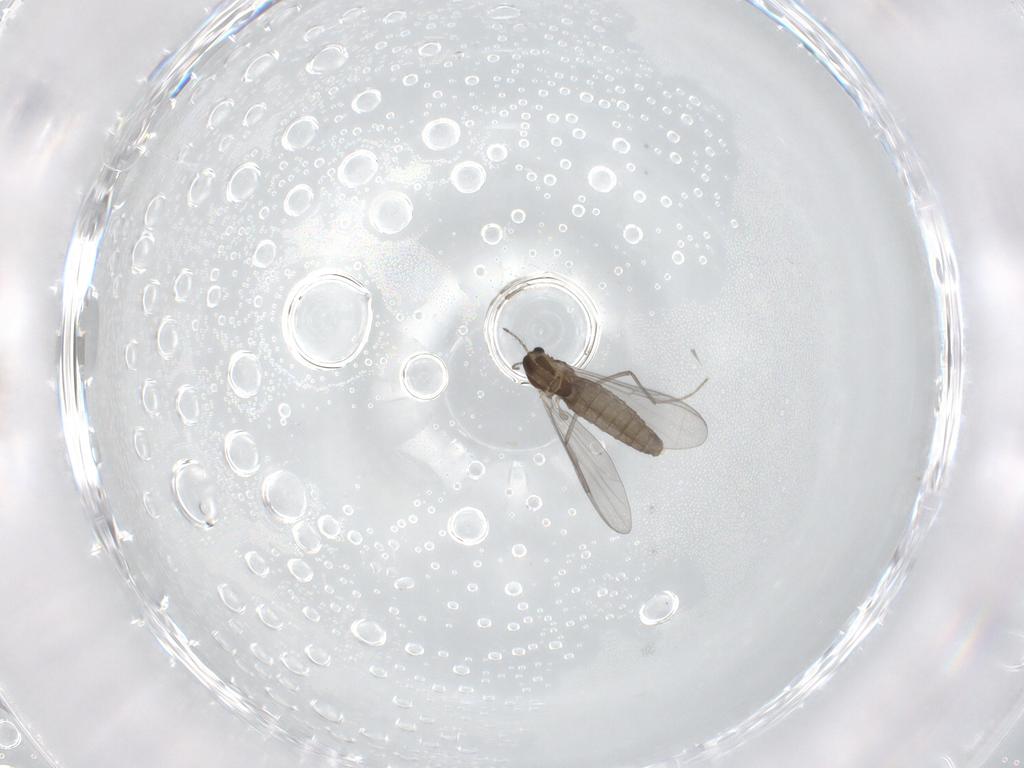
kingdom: Animalia
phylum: Arthropoda
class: Insecta
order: Diptera
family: Chironomidae
